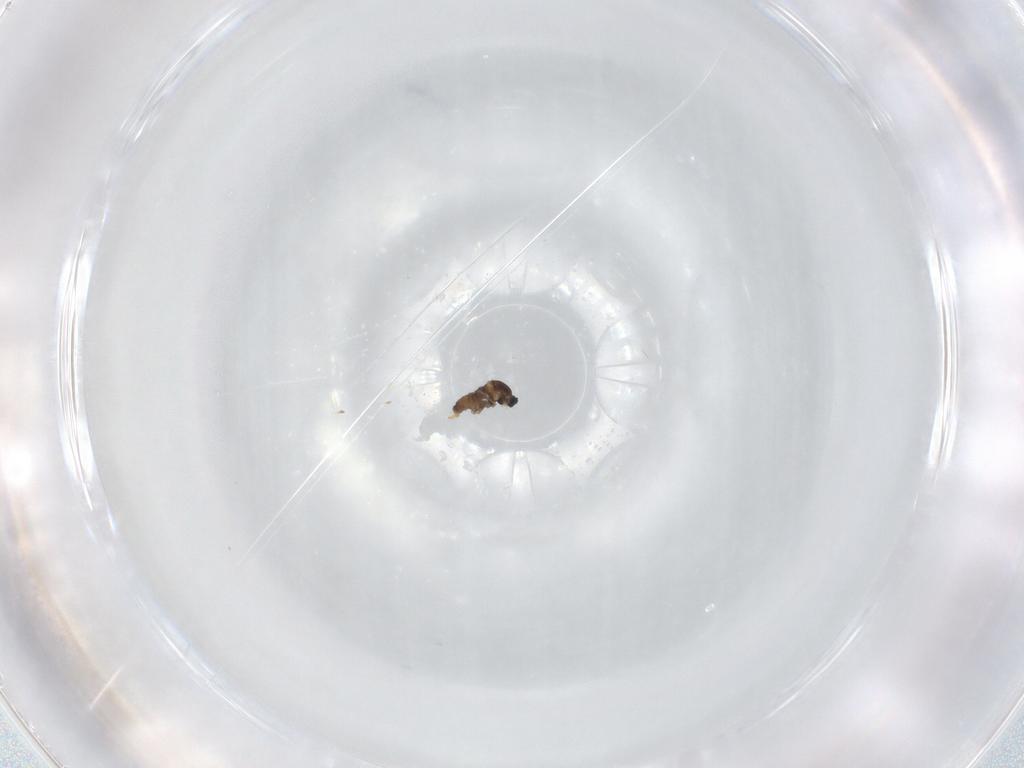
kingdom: Animalia
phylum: Arthropoda
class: Insecta
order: Diptera
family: Cecidomyiidae
